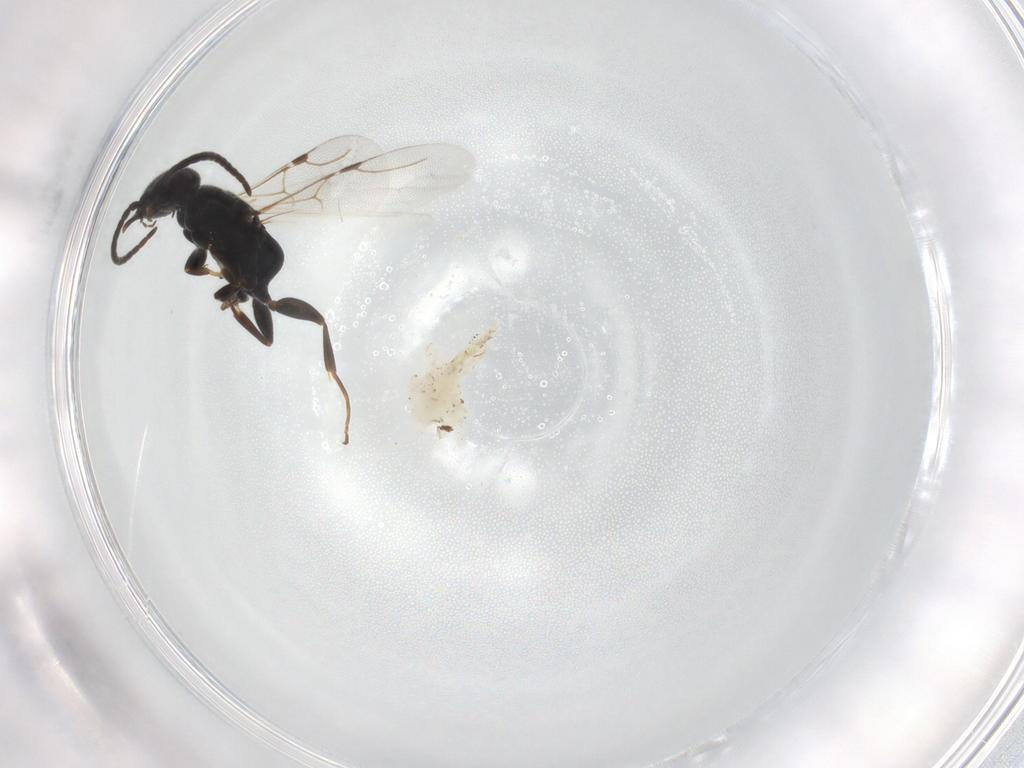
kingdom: Animalia
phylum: Arthropoda
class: Insecta
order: Hymenoptera
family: Bethylidae
